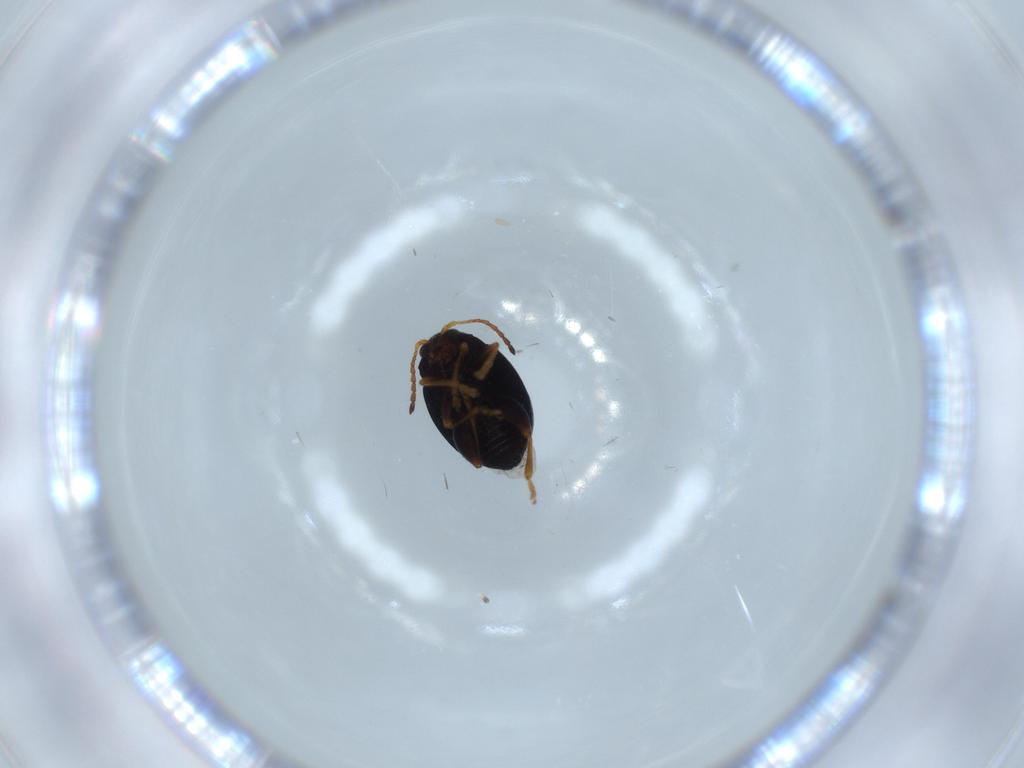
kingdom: Animalia
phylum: Arthropoda
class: Insecta
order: Coleoptera
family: Chrysomelidae
